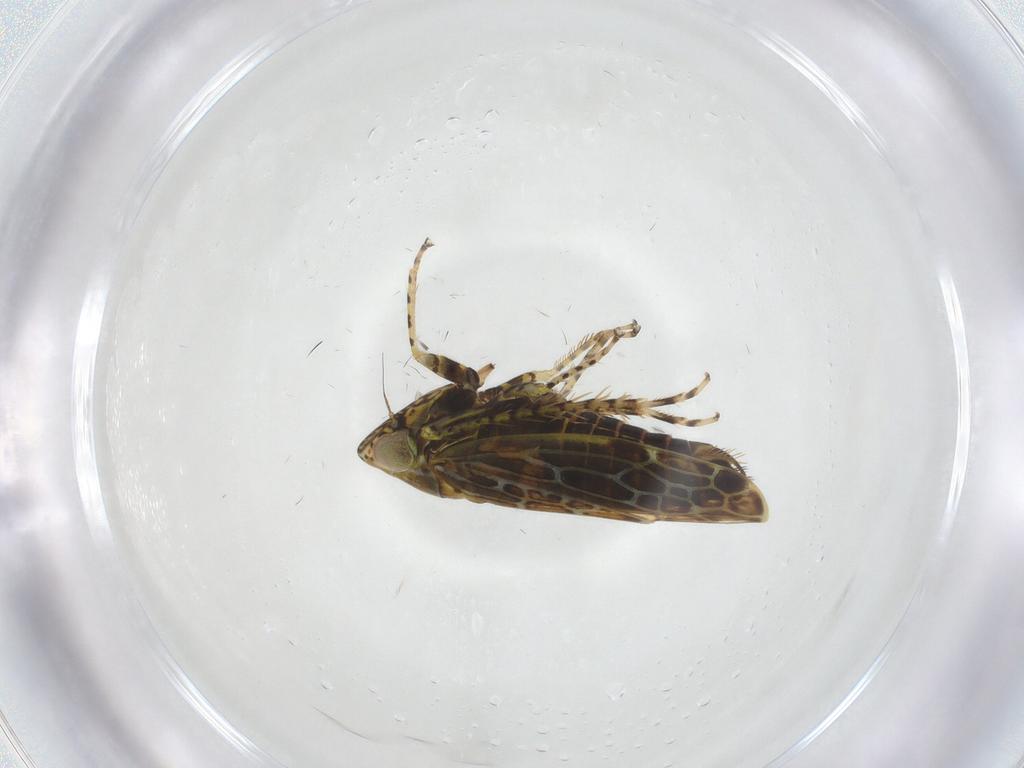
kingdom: Animalia
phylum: Arthropoda
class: Insecta
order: Hemiptera
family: Cicadellidae
